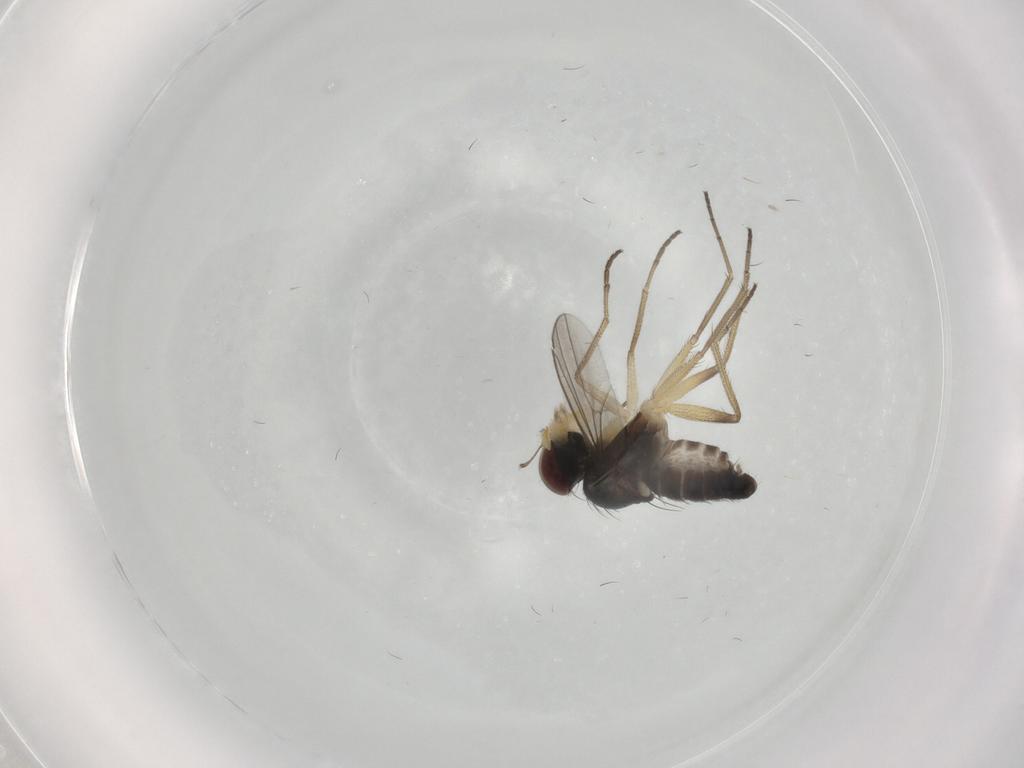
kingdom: Animalia
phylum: Arthropoda
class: Insecta
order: Diptera
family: Dolichopodidae
